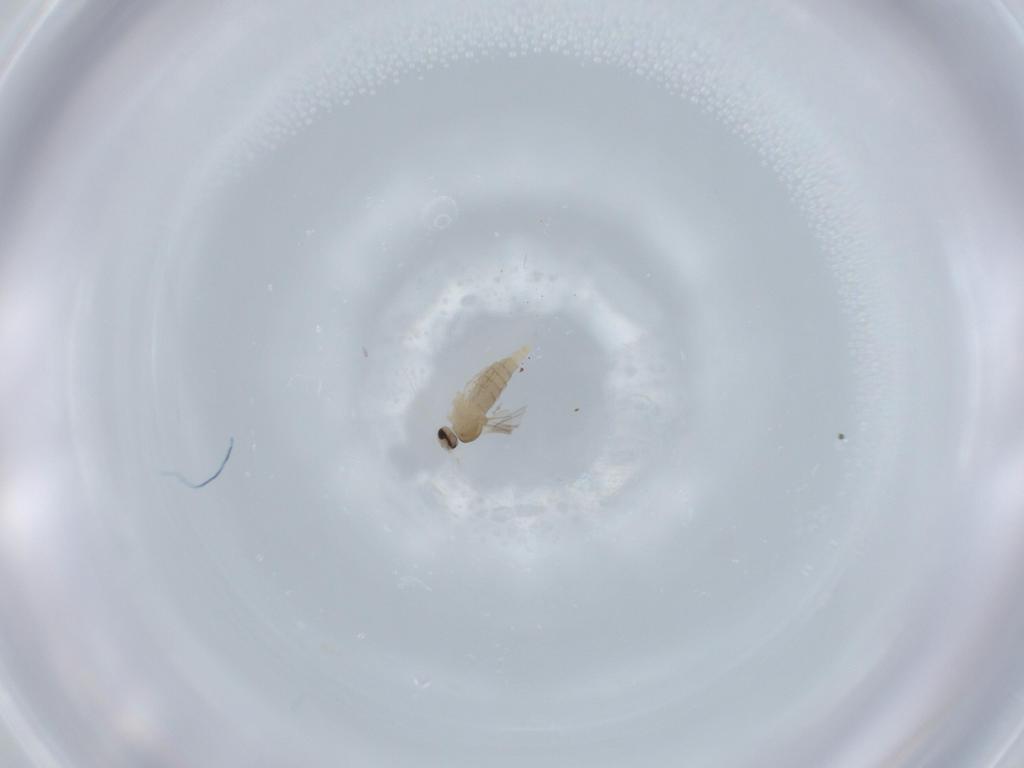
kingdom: Animalia
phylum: Arthropoda
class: Insecta
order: Diptera
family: Cecidomyiidae
